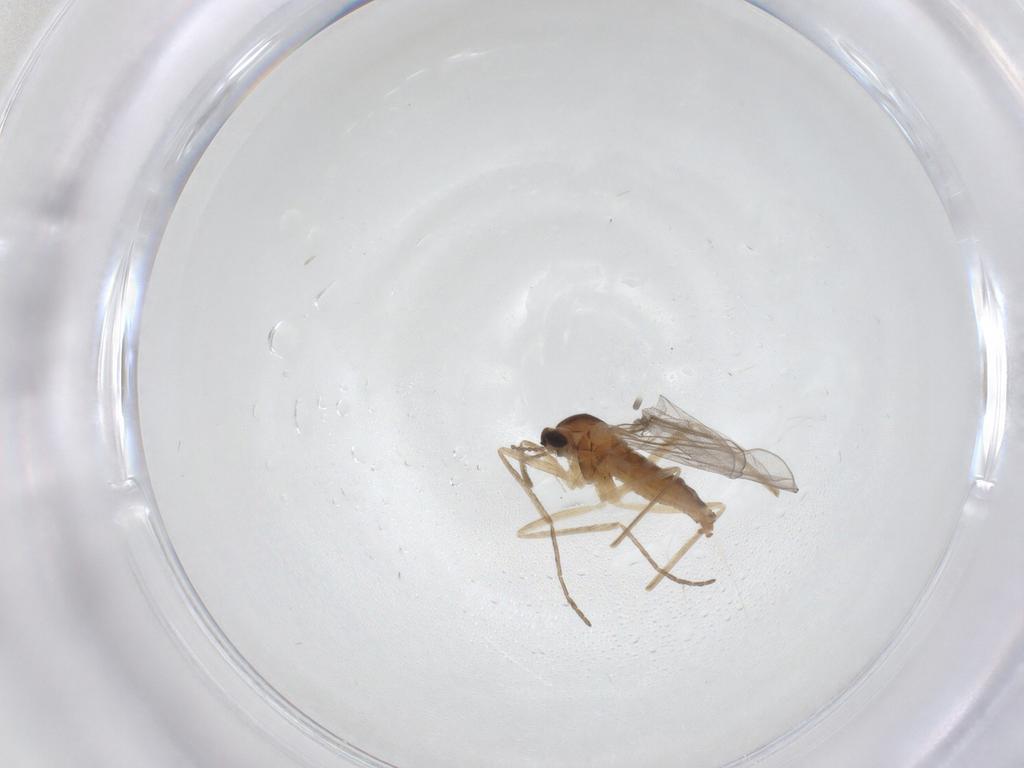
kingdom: Animalia
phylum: Arthropoda
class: Insecta
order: Diptera
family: Cecidomyiidae
